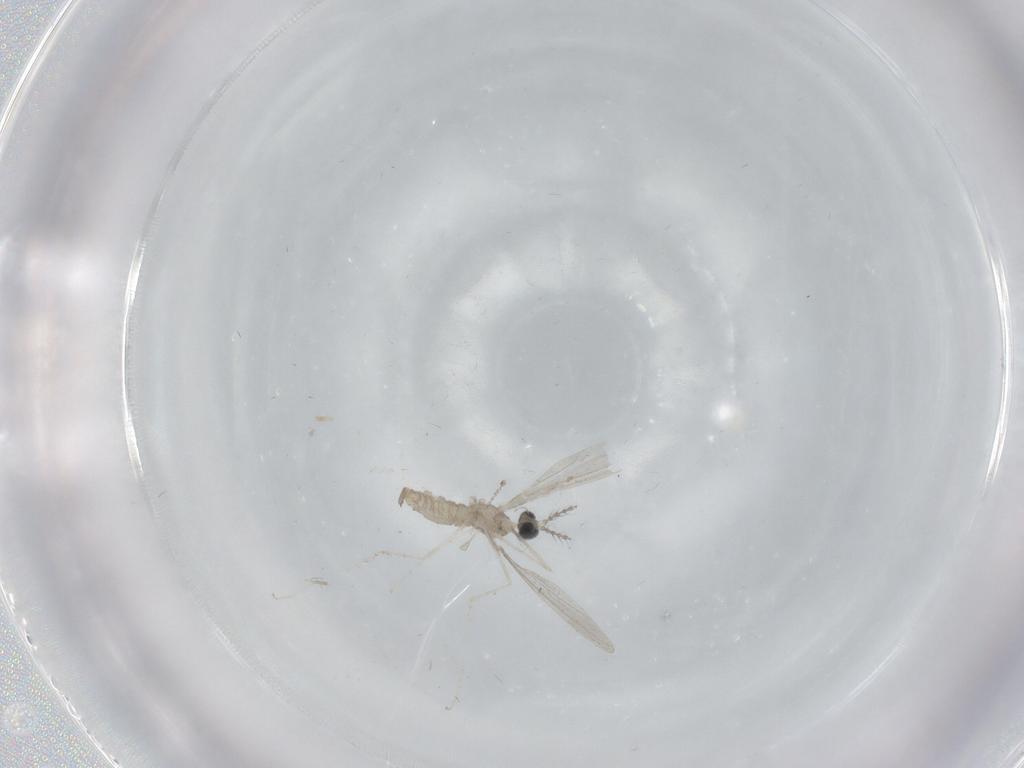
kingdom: Animalia
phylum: Arthropoda
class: Insecta
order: Diptera
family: Cecidomyiidae
